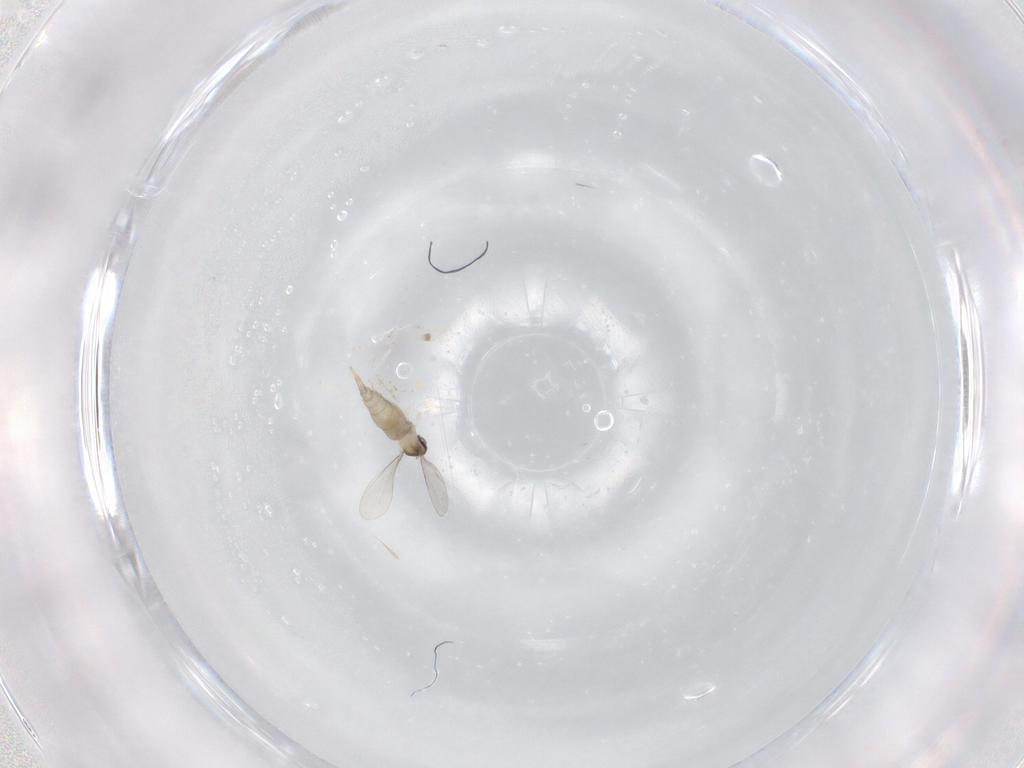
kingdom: Animalia
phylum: Arthropoda
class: Insecta
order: Diptera
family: Cecidomyiidae
